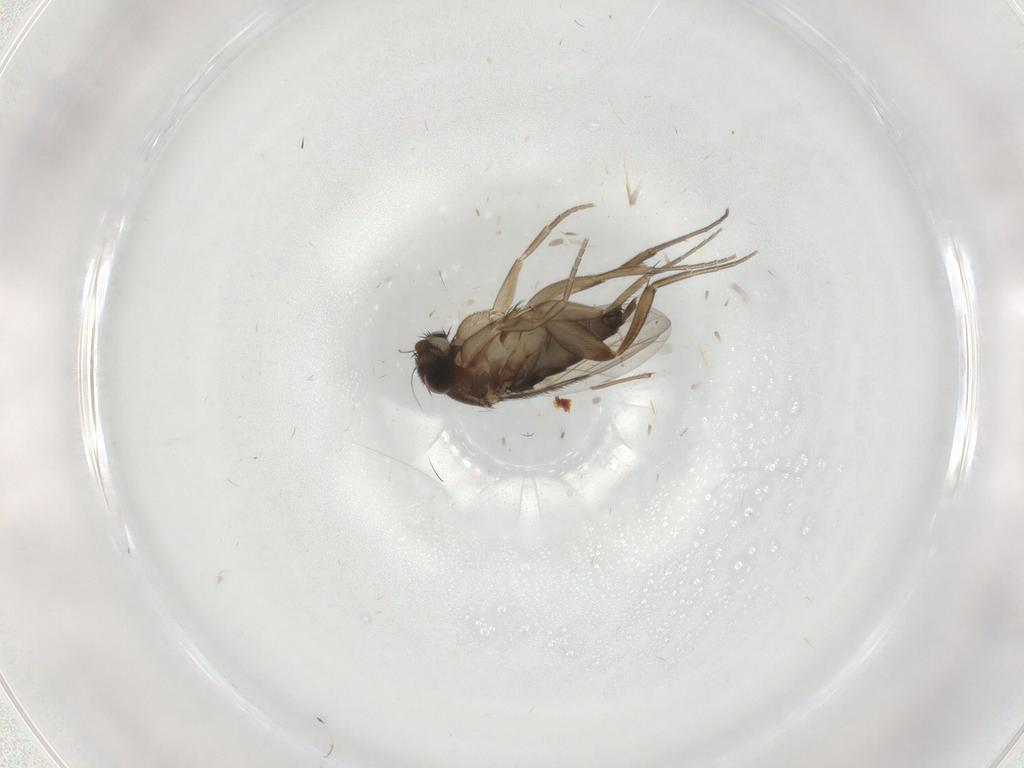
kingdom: Animalia
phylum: Arthropoda
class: Insecta
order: Diptera
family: Sciaridae
